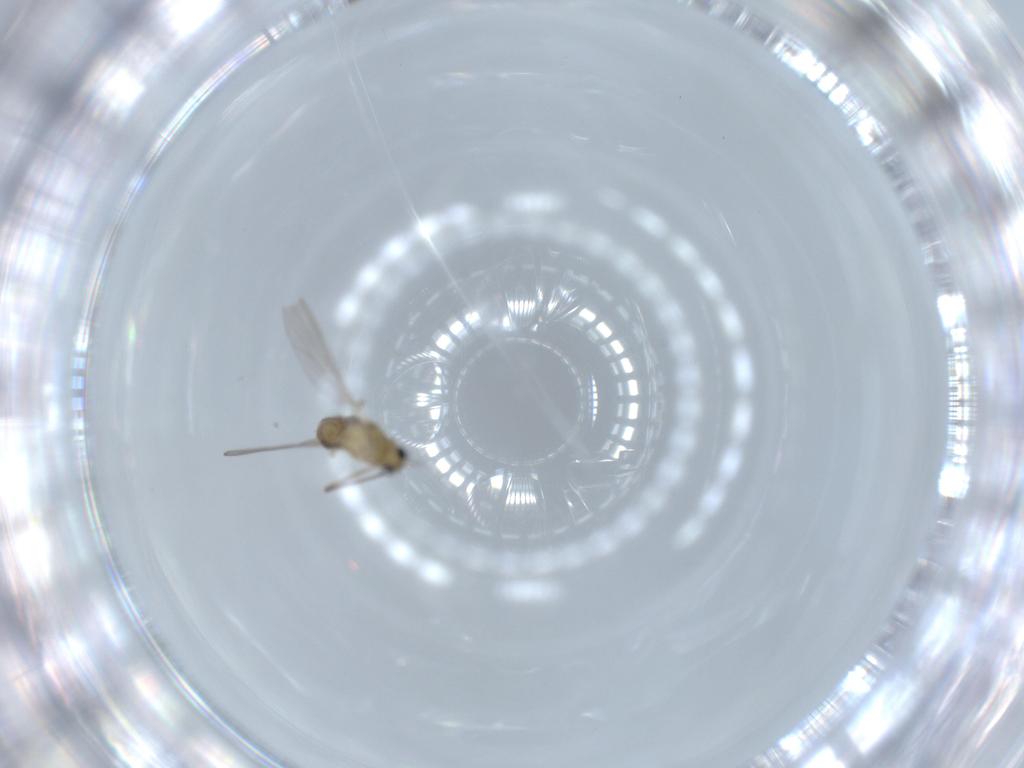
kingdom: Animalia
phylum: Arthropoda
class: Insecta
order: Diptera
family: Chironomidae
